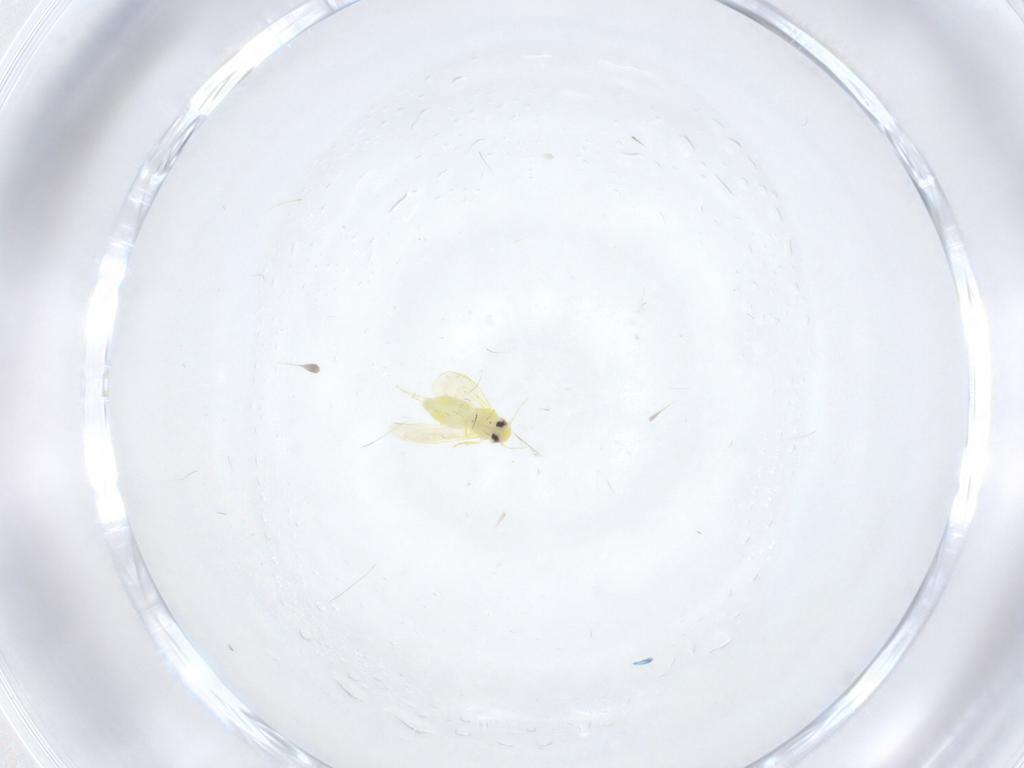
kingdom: Animalia
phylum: Arthropoda
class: Insecta
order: Hemiptera
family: Aleyrodidae
